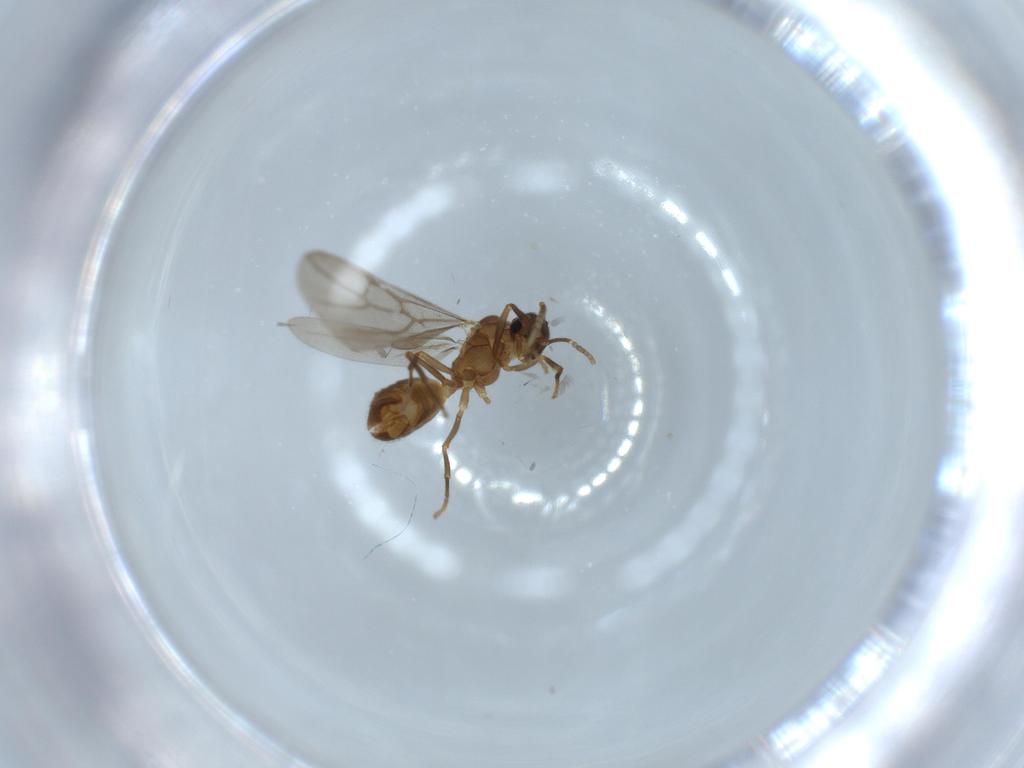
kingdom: Animalia
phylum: Arthropoda
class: Insecta
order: Hymenoptera
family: Formicidae
